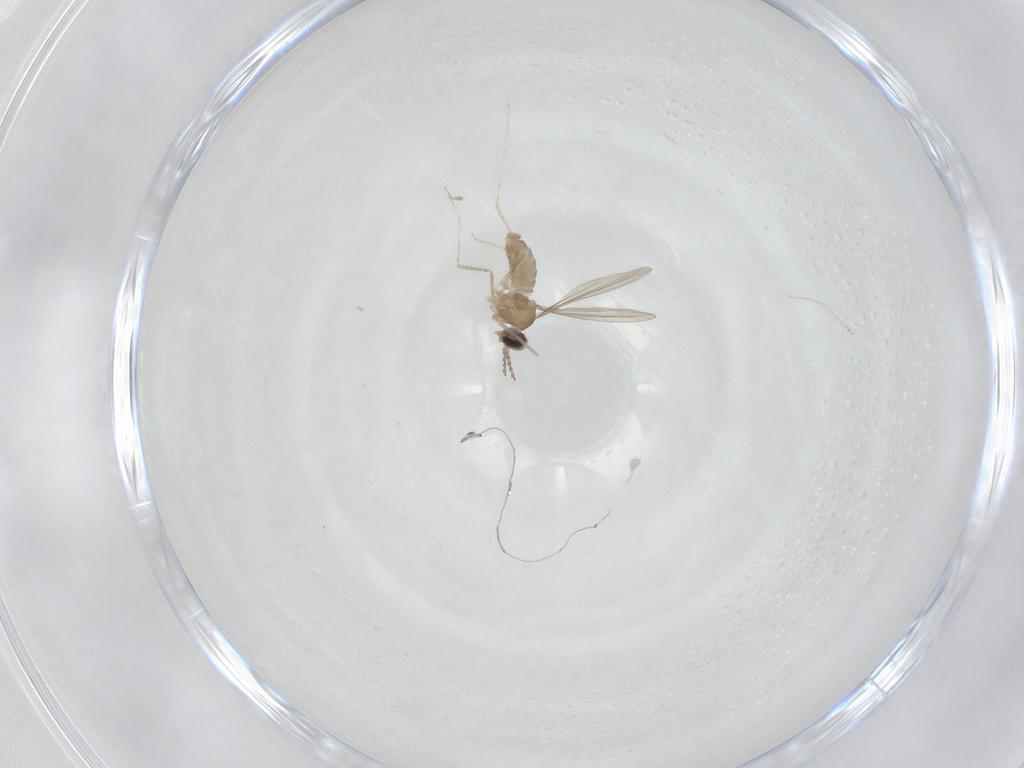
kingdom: Animalia
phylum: Arthropoda
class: Insecta
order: Diptera
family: Cecidomyiidae
